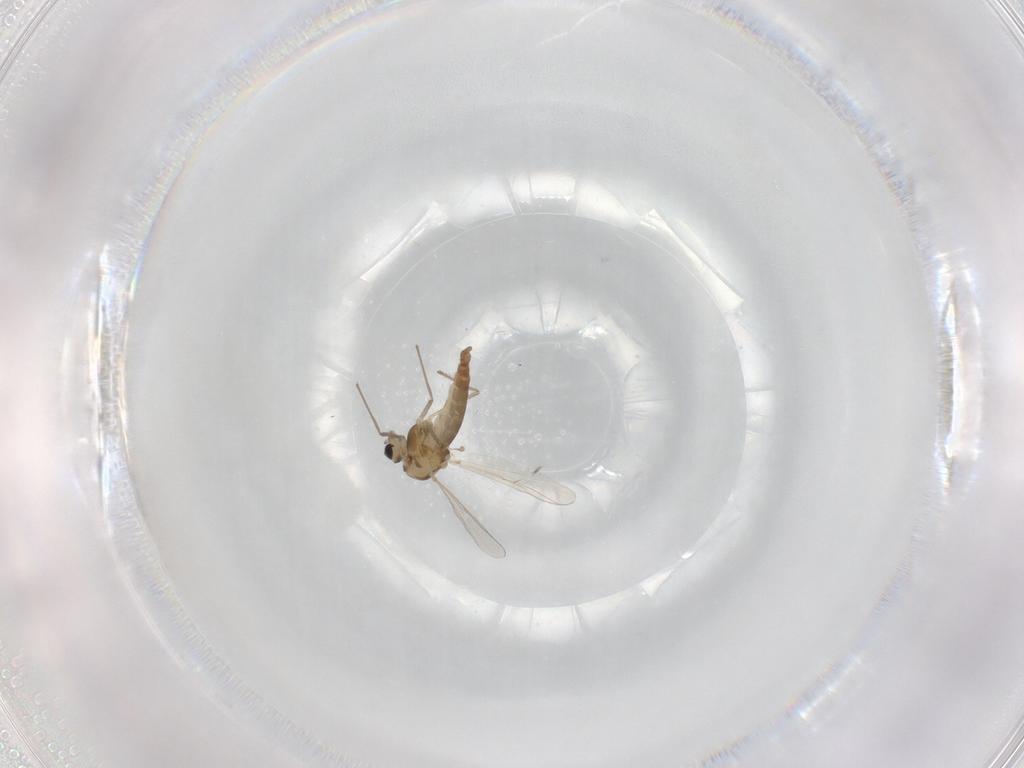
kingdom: Animalia
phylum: Arthropoda
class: Insecta
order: Diptera
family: Chironomidae
